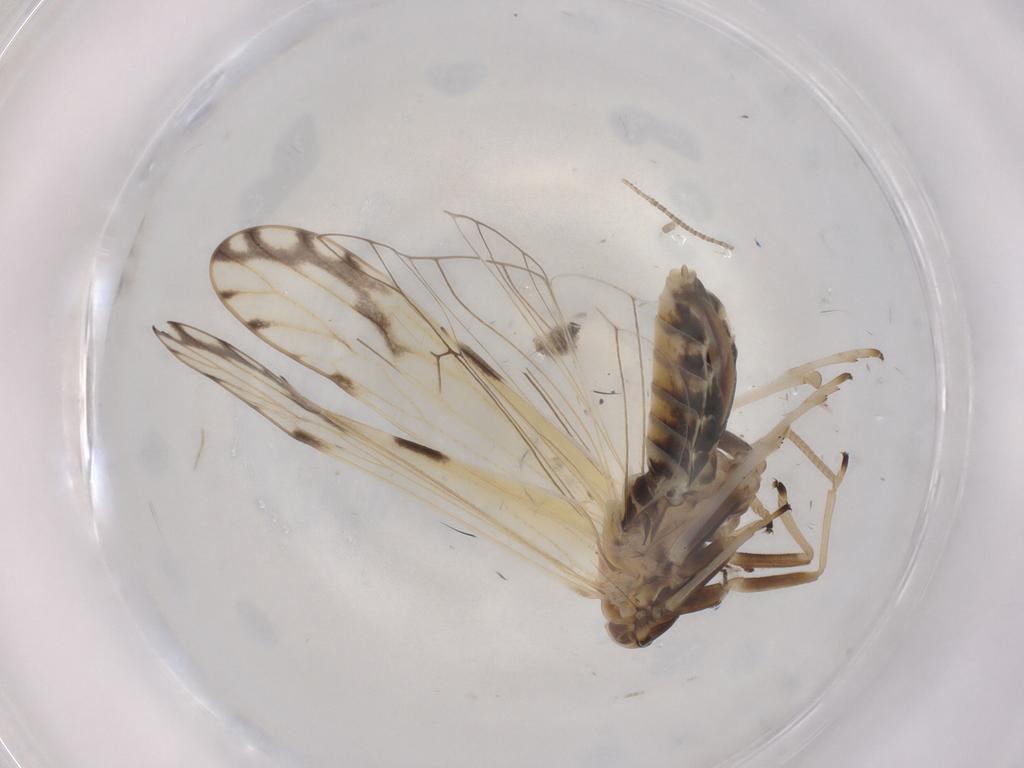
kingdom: Animalia
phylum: Arthropoda
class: Insecta
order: Hemiptera
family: Delphacidae
